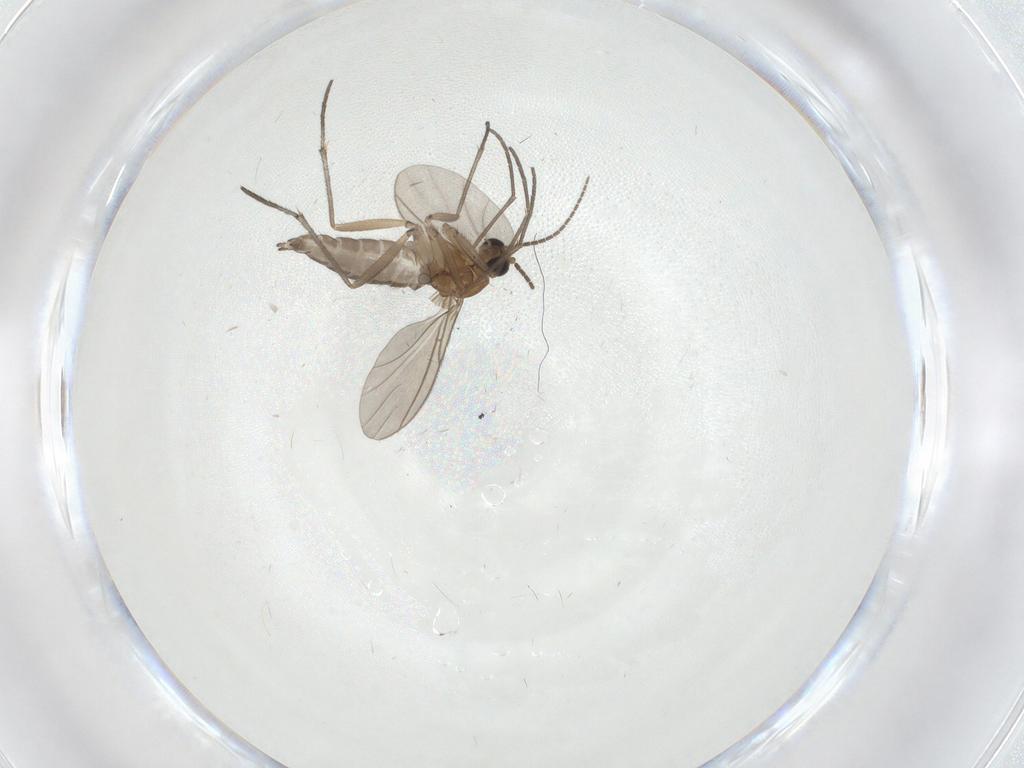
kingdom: Animalia
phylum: Arthropoda
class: Insecta
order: Diptera
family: Sciaridae
